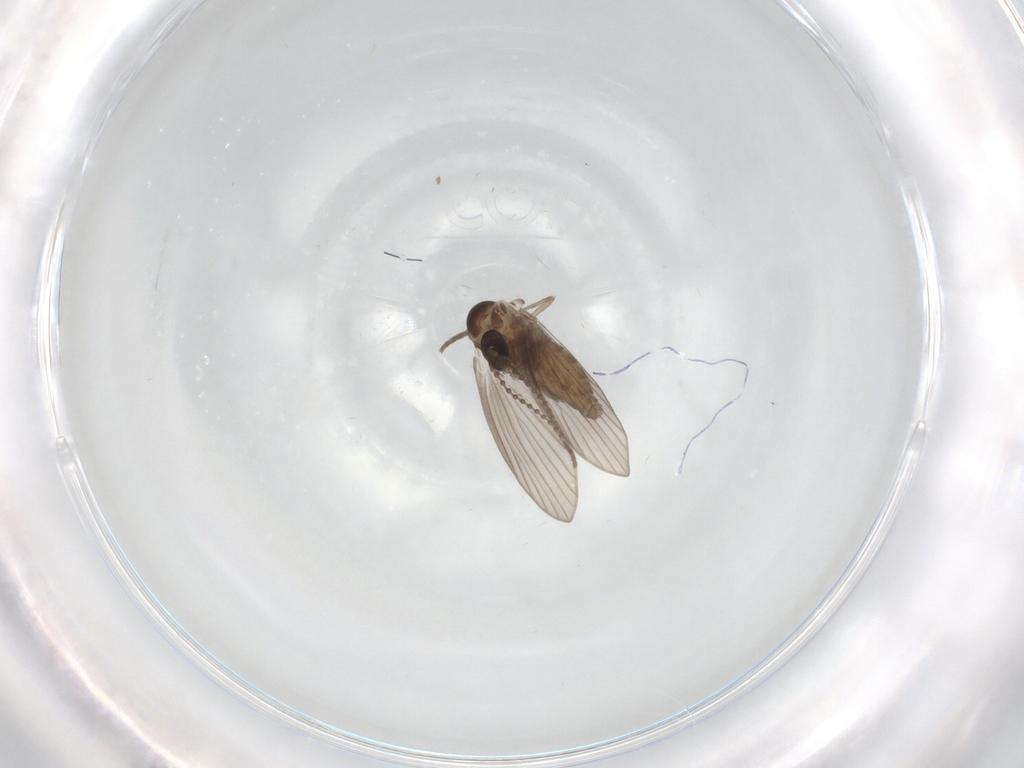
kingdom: Animalia
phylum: Arthropoda
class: Insecta
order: Diptera
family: Psychodidae
